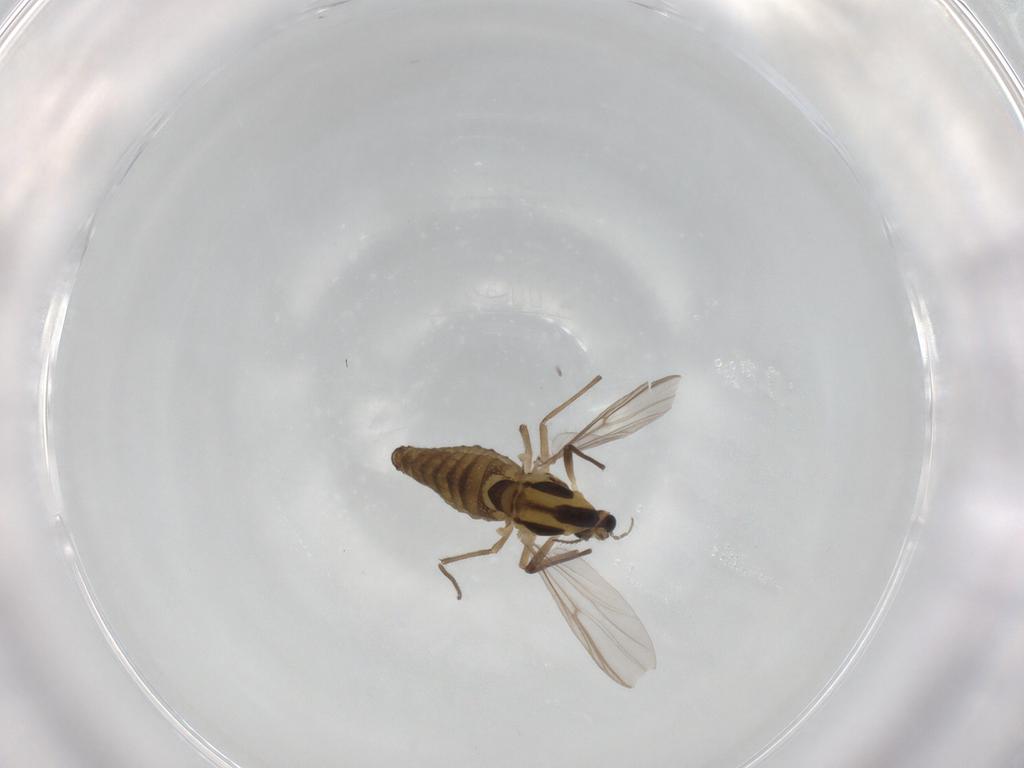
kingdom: Animalia
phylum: Arthropoda
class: Insecta
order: Diptera
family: Chironomidae
